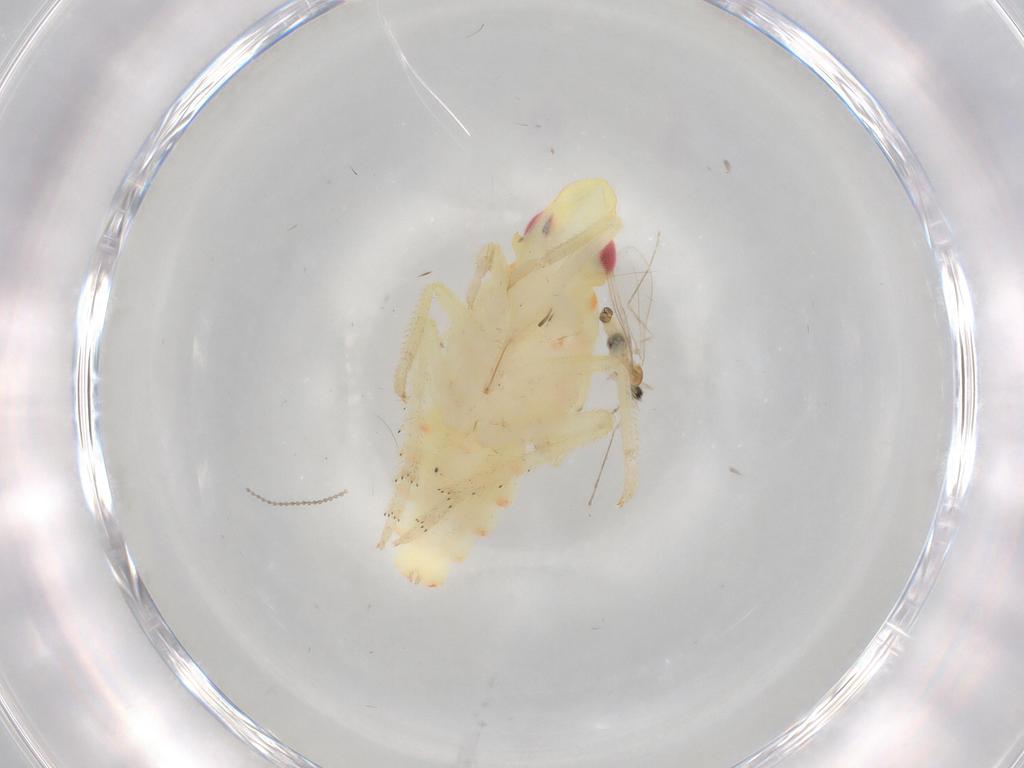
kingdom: Animalia
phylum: Arthropoda
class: Insecta
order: Hemiptera
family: Tropiduchidae
